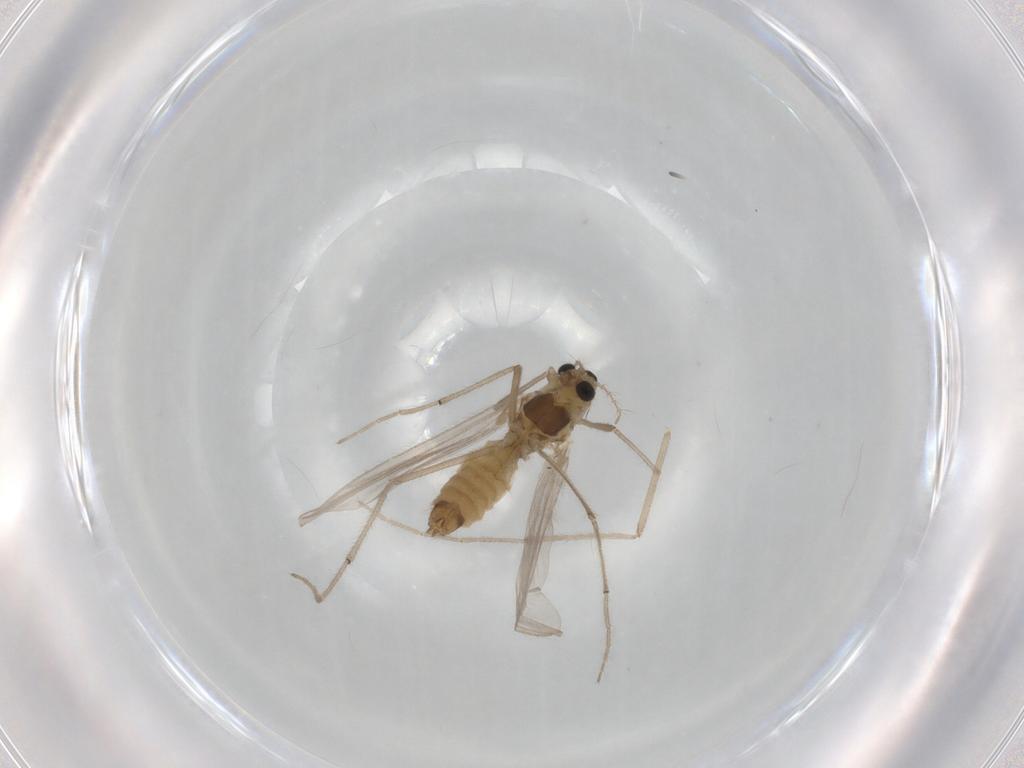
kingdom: Animalia
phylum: Arthropoda
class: Insecta
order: Diptera
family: Chironomidae
